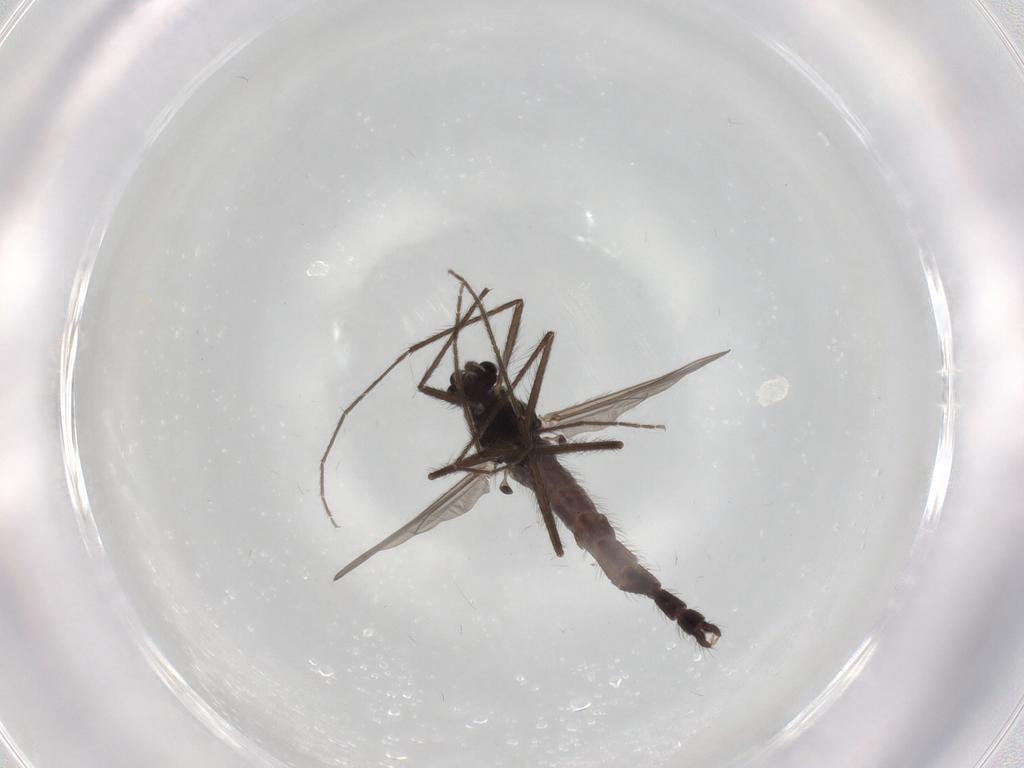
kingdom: Animalia
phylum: Arthropoda
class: Insecta
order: Diptera
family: Chironomidae
